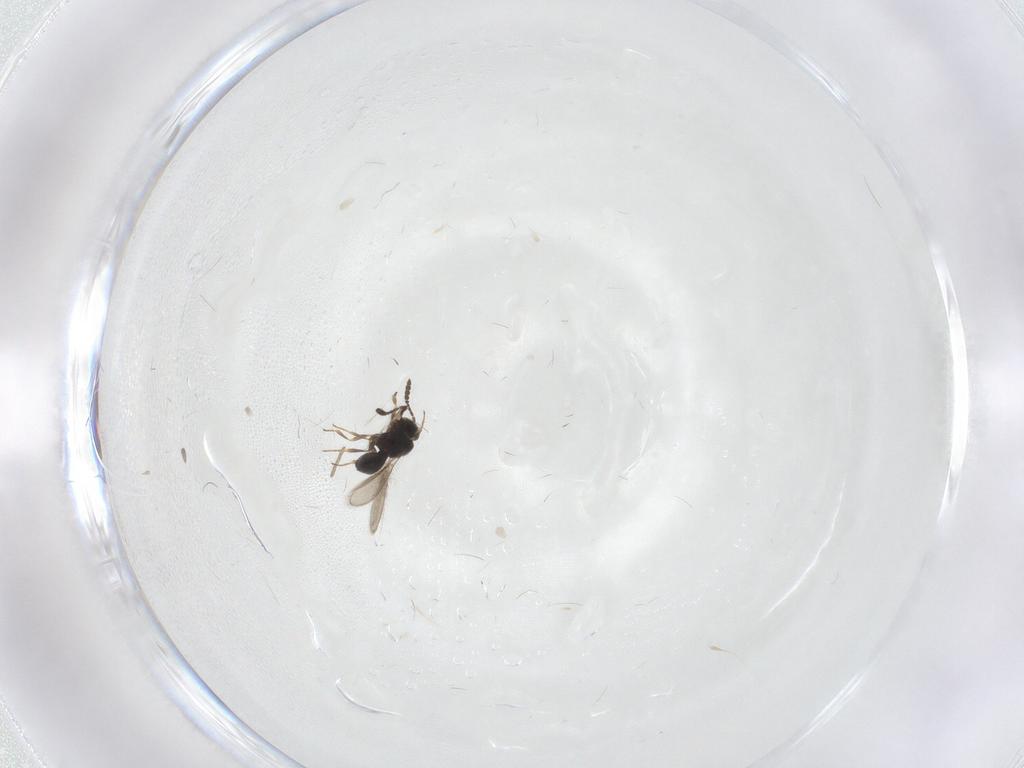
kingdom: Animalia
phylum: Arthropoda
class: Insecta
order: Hymenoptera
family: Scelionidae
